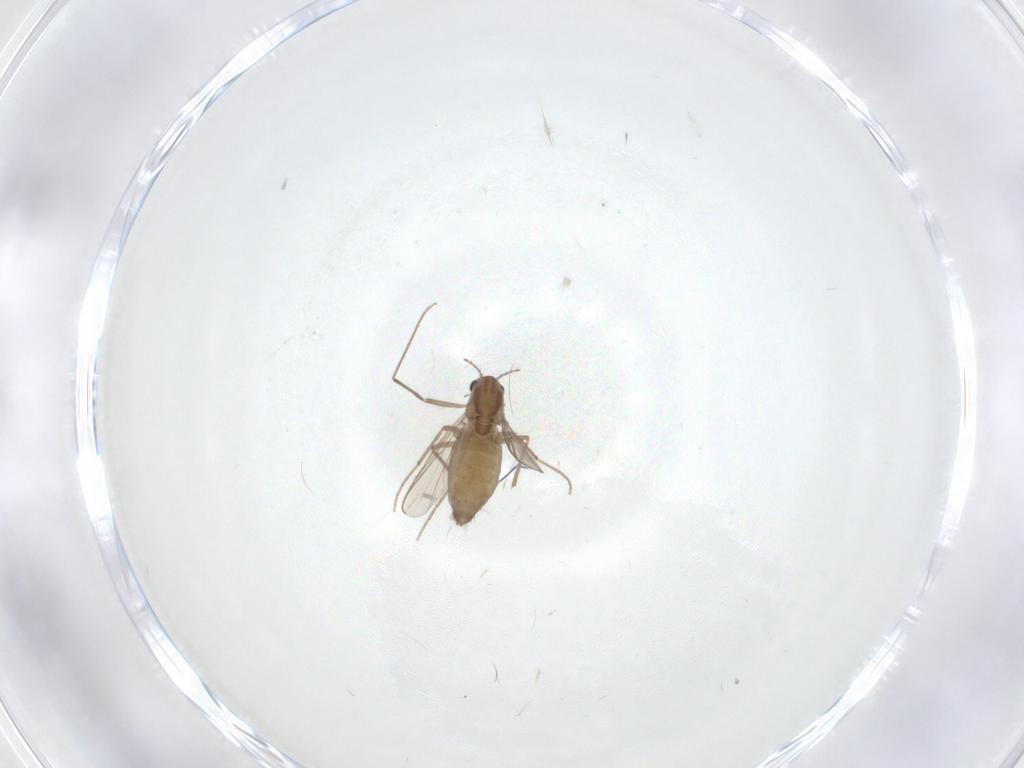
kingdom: Animalia
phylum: Arthropoda
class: Insecta
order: Diptera
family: Chironomidae
